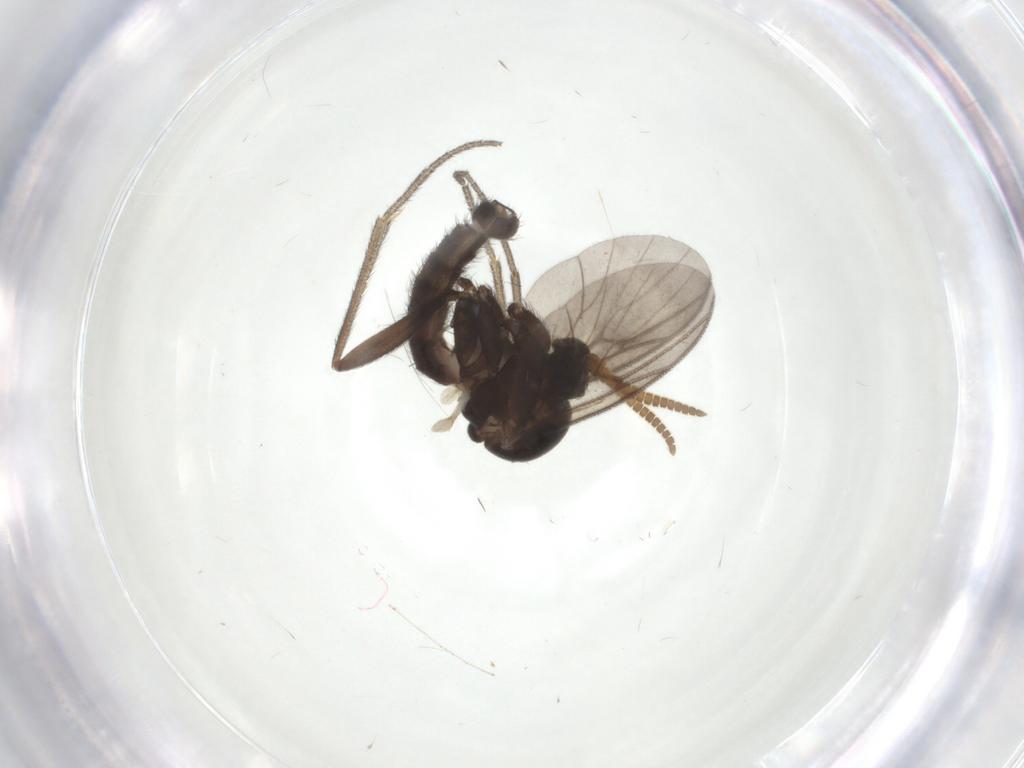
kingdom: Animalia
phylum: Arthropoda
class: Insecta
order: Diptera
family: Mycetophilidae
